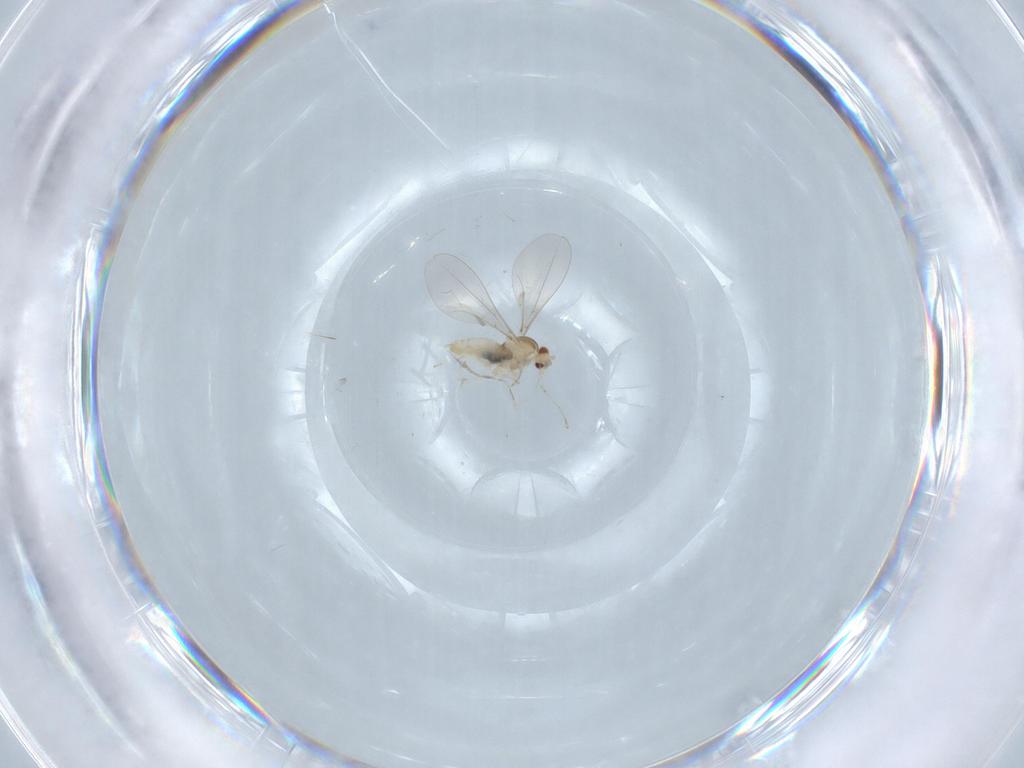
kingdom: Animalia
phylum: Arthropoda
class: Insecta
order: Diptera
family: Cecidomyiidae
